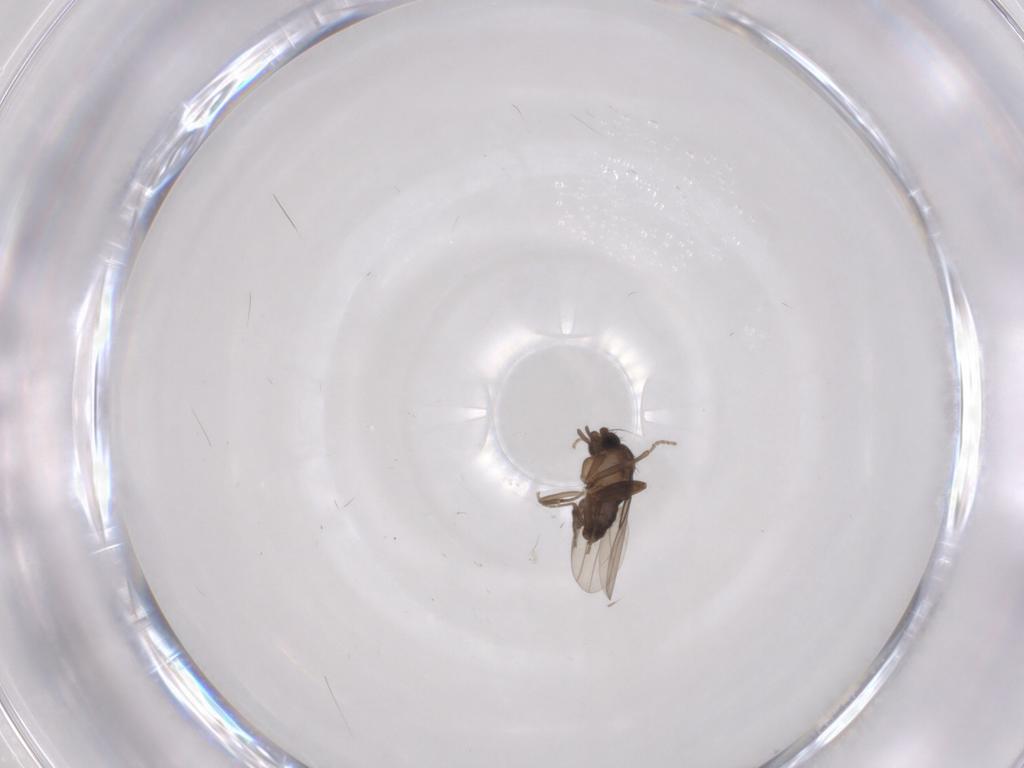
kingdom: Animalia
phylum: Arthropoda
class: Insecta
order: Diptera
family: Phoridae
